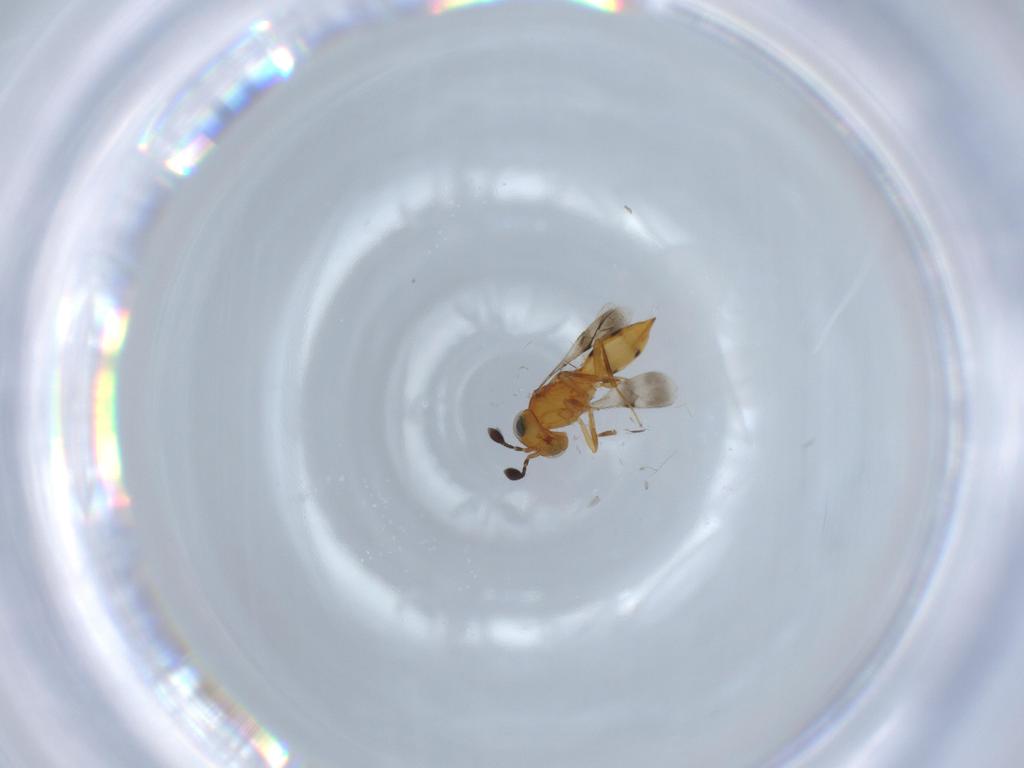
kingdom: Animalia
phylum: Arthropoda
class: Insecta
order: Hymenoptera
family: Scelionidae
